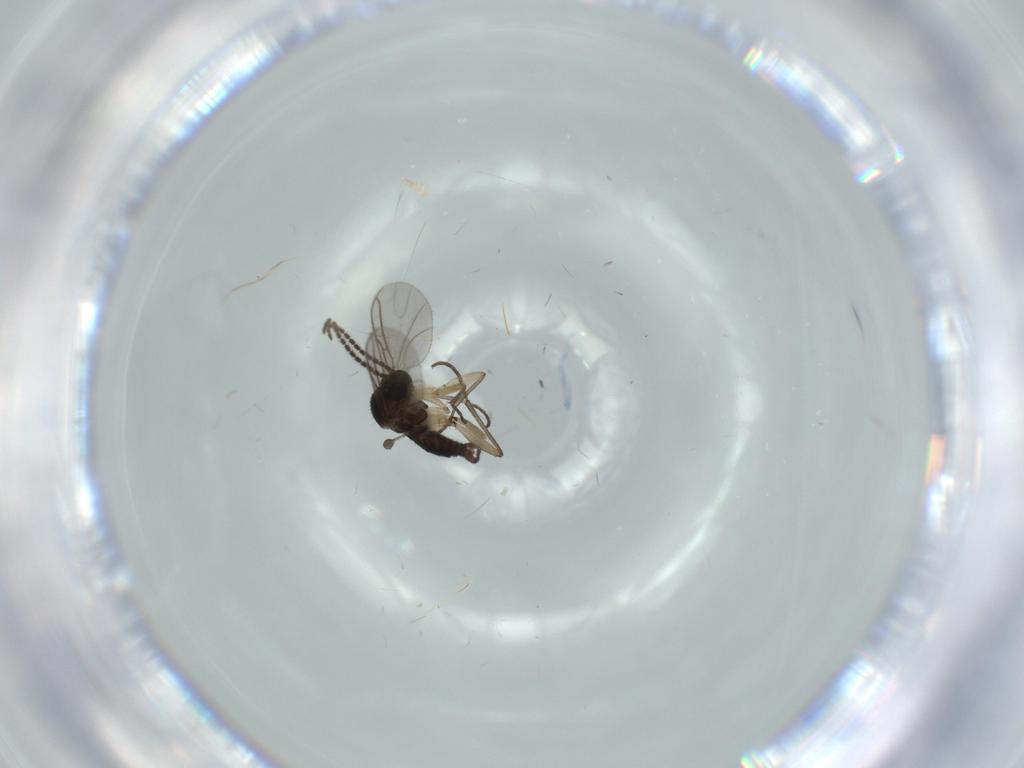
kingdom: Animalia
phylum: Arthropoda
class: Insecta
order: Diptera
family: Sciaridae
